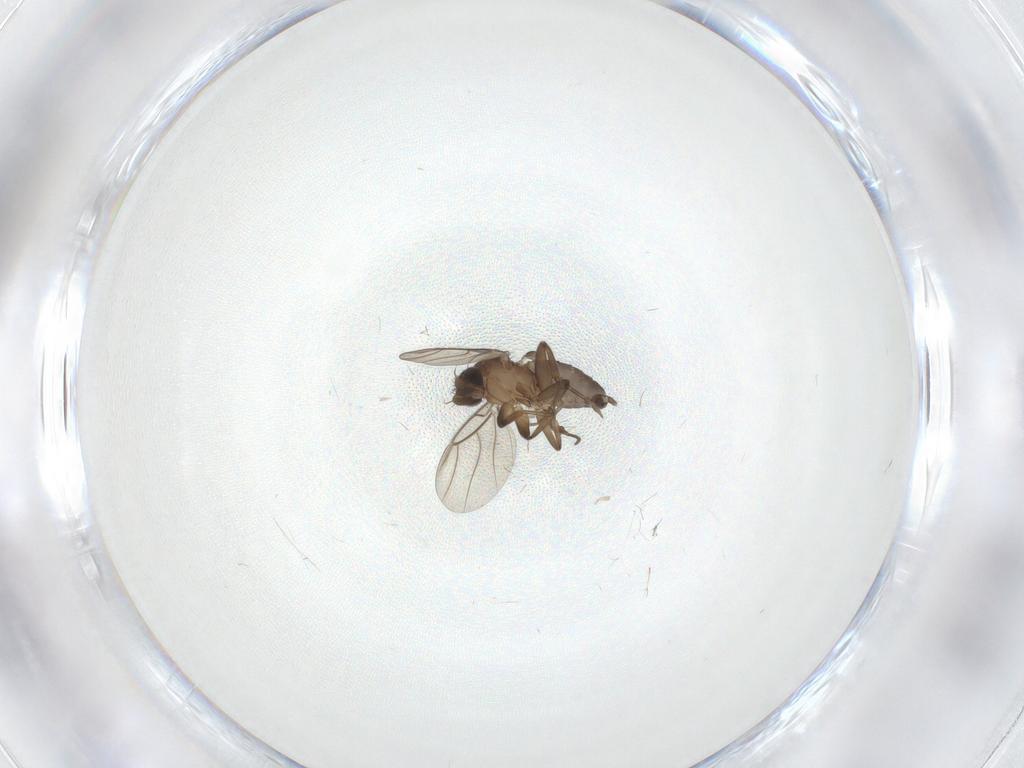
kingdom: Animalia
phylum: Arthropoda
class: Insecta
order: Diptera
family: Phoridae
